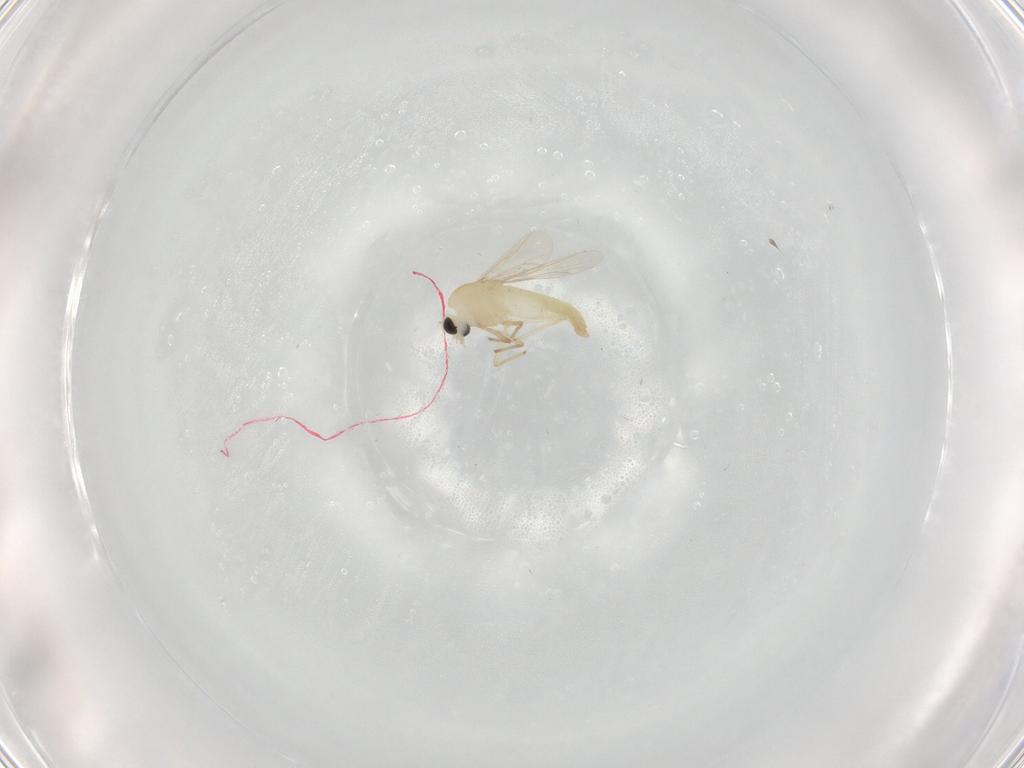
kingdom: Animalia
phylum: Arthropoda
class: Insecta
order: Diptera
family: Chironomidae
